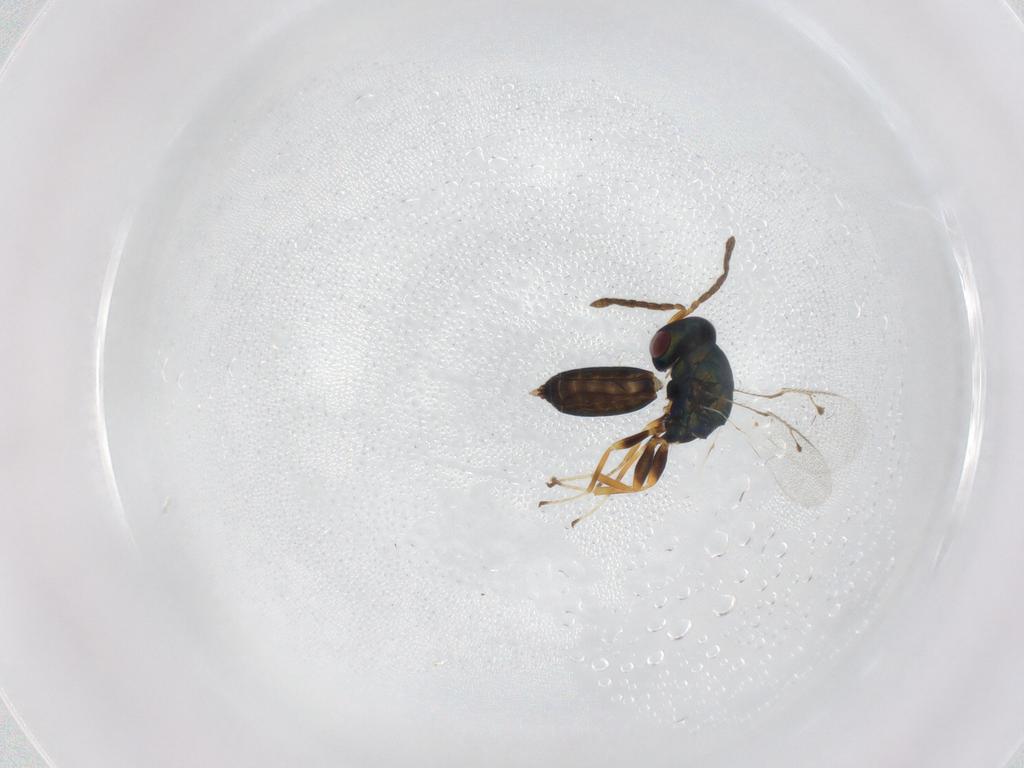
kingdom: Animalia
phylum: Arthropoda
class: Insecta
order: Hymenoptera
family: Pteromalidae
